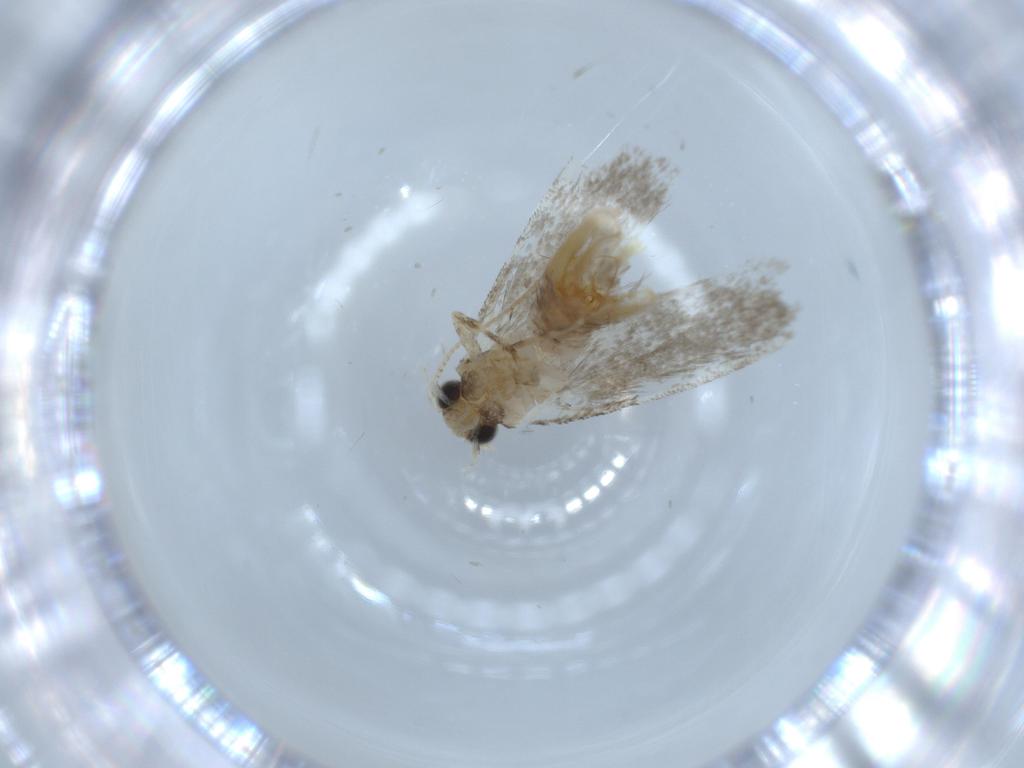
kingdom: Animalia
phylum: Arthropoda
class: Insecta
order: Lepidoptera
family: Tineidae
